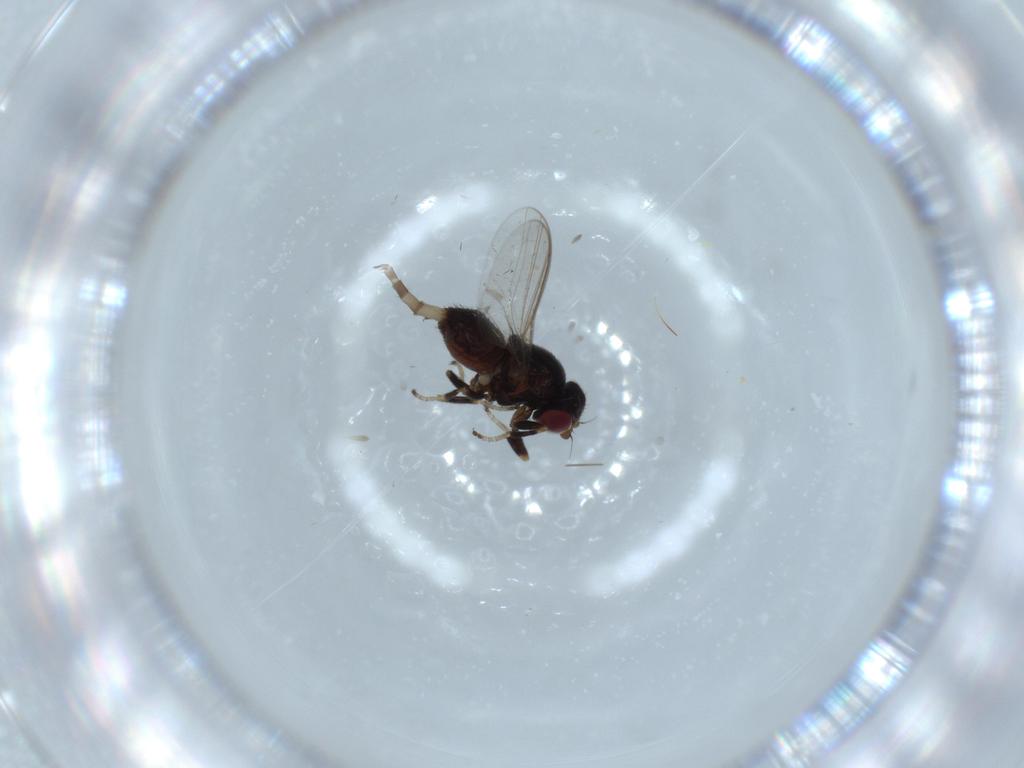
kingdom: Animalia
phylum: Arthropoda
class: Insecta
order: Diptera
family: Chloropidae
